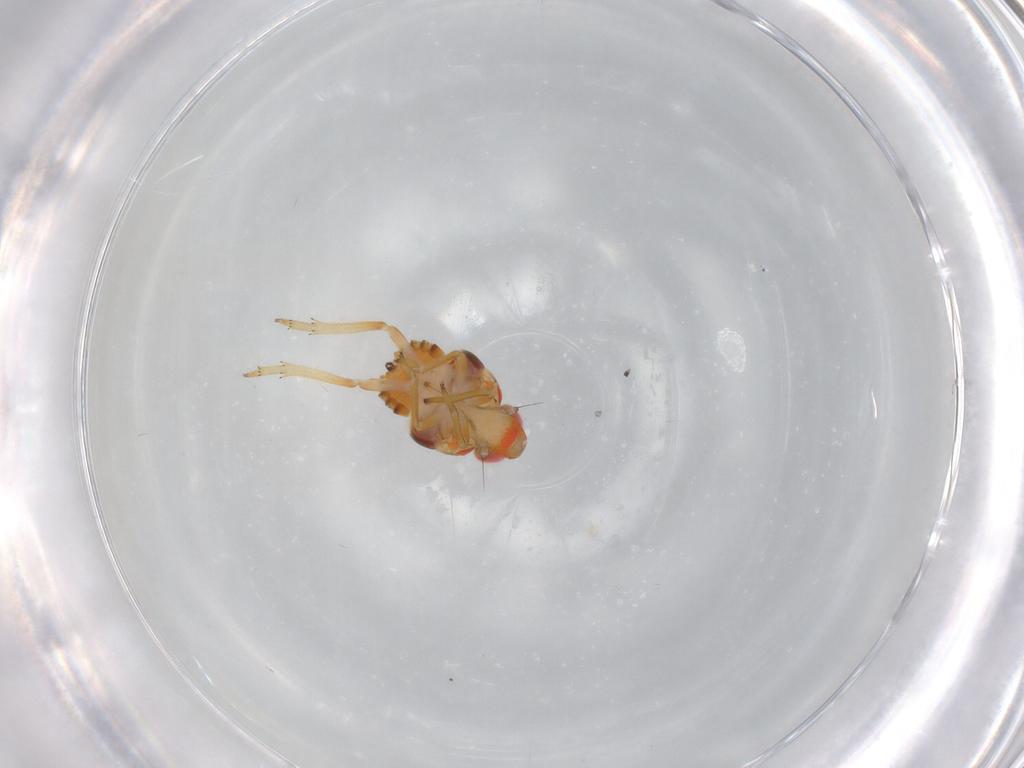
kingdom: Animalia
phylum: Arthropoda
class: Insecta
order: Hemiptera
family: Issidae
